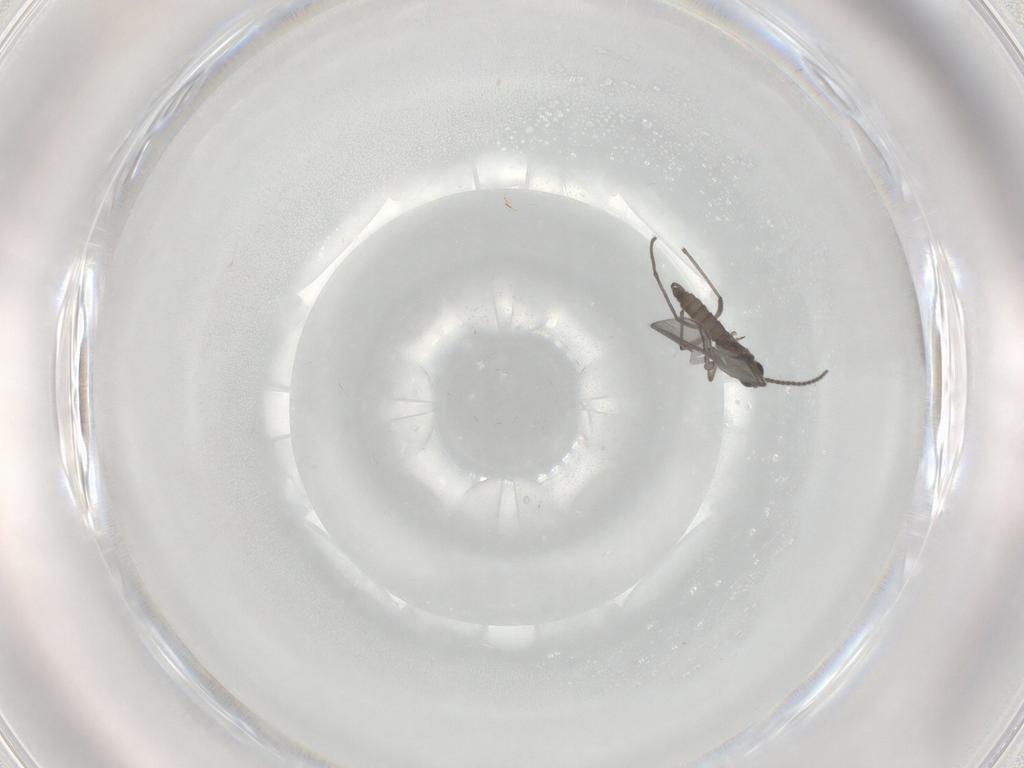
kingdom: Animalia
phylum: Arthropoda
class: Insecta
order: Diptera
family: Sciaridae
